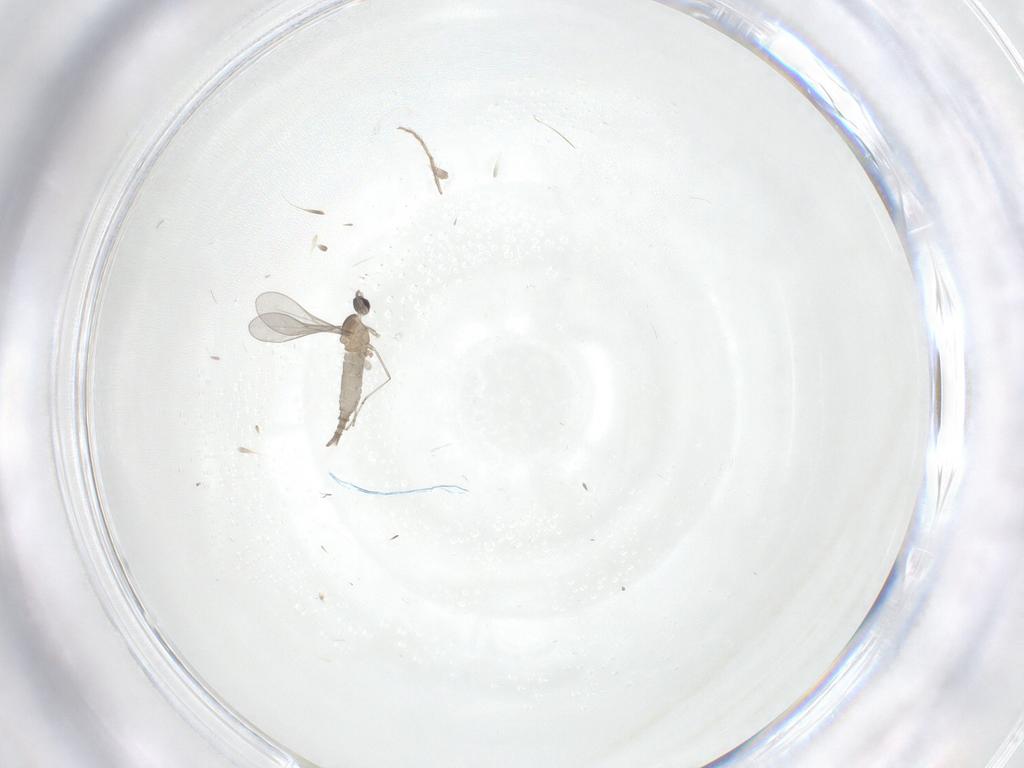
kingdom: Animalia
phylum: Arthropoda
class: Insecta
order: Diptera
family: Chironomidae
